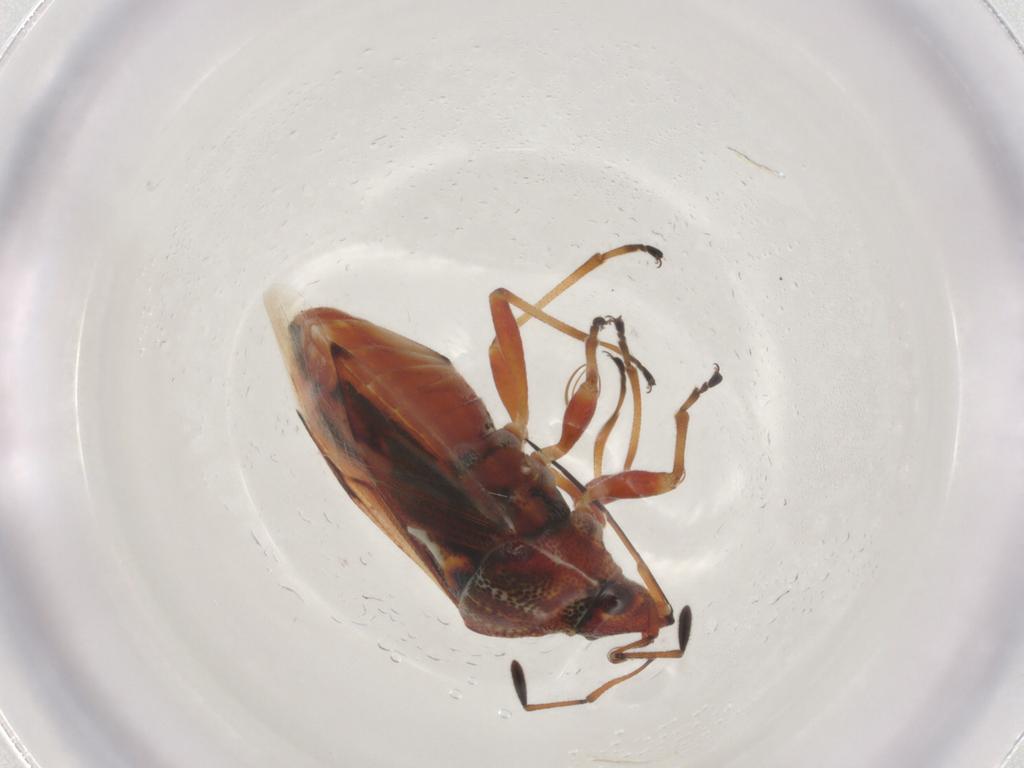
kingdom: Animalia
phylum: Arthropoda
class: Insecta
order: Hemiptera
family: Lygaeidae
